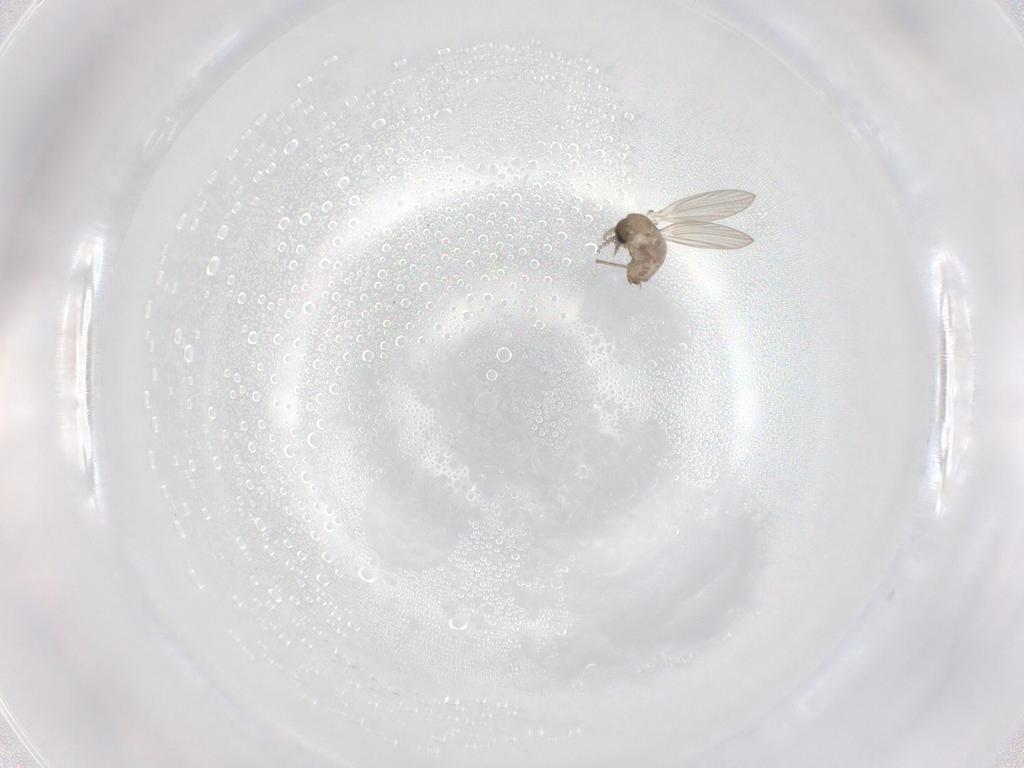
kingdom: Animalia
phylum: Arthropoda
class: Insecta
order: Diptera
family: Psychodidae
